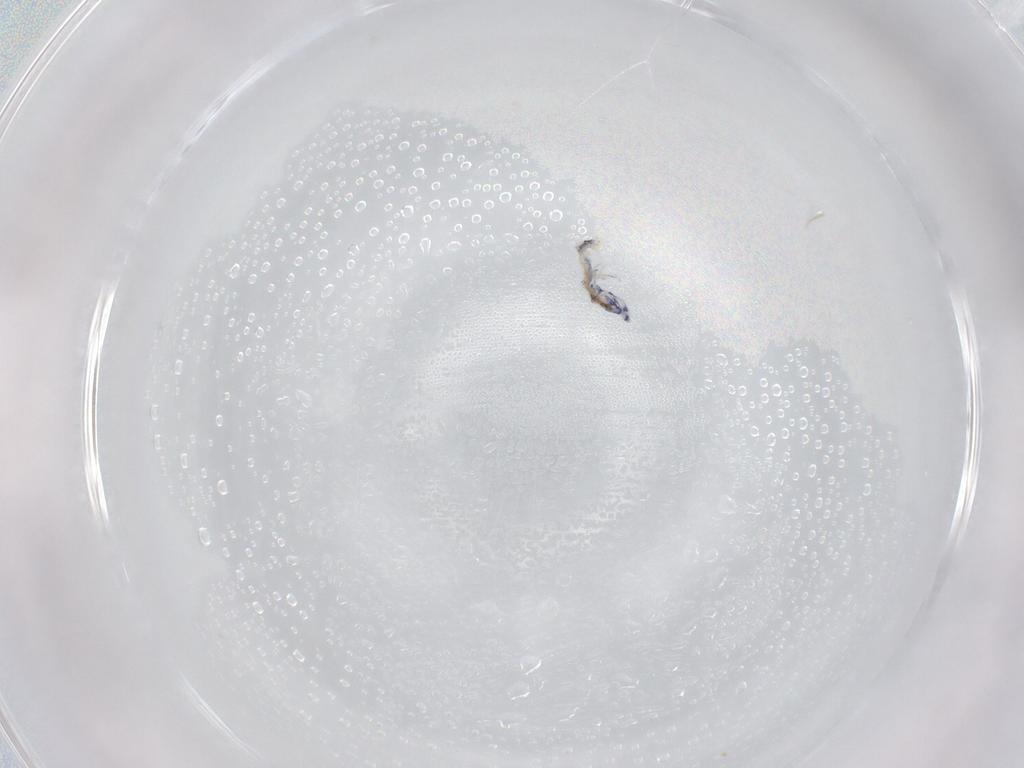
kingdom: Animalia
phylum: Arthropoda
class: Collembola
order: Entomobryomorpha
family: Entomobryidae
